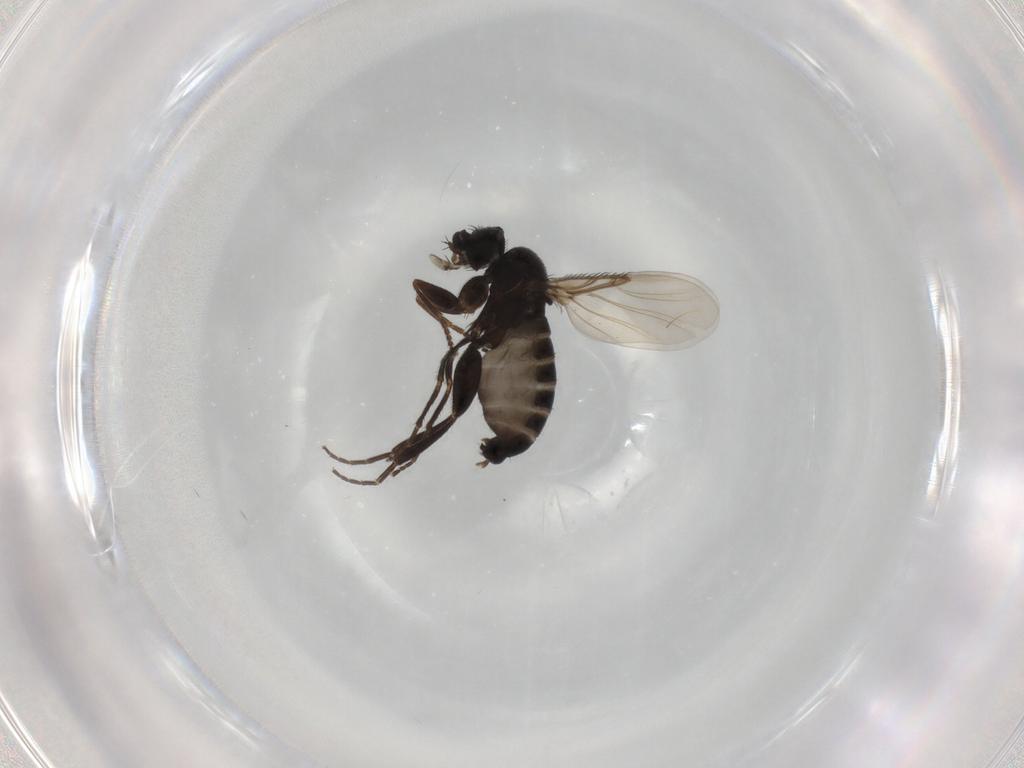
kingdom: Animalia
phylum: Arthropoda
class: Insecta
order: Diptera
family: Phoridae
